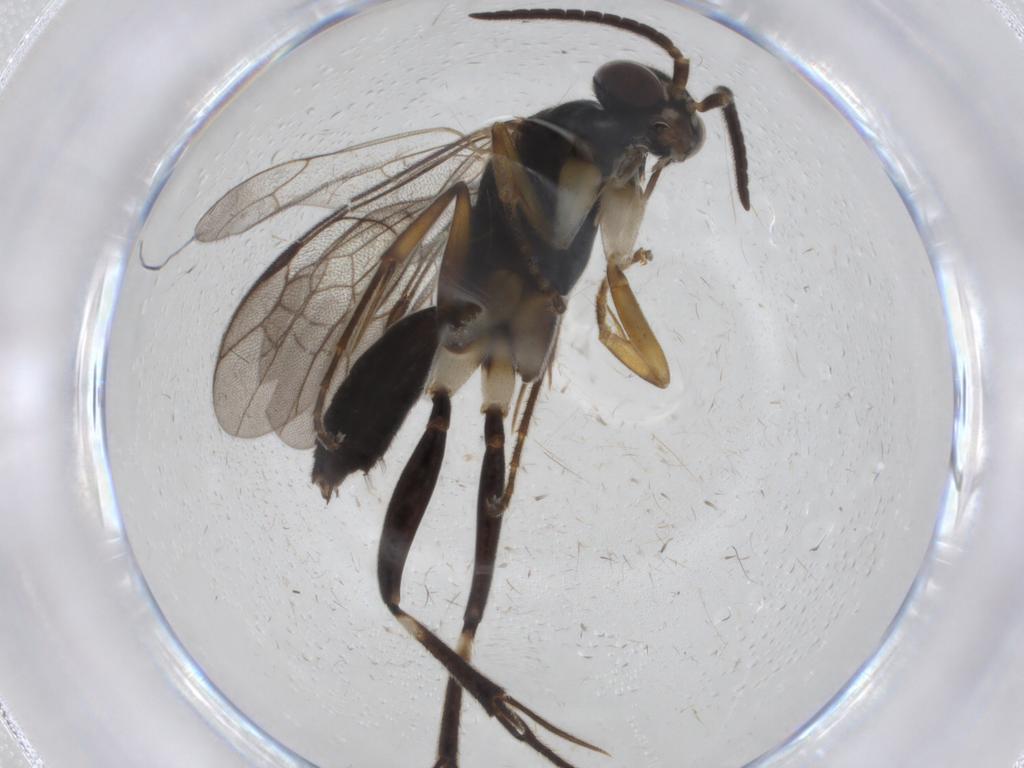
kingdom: Animalia
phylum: Arthropoda
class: Insecta
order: Hymenoptera
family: Pompilidae
